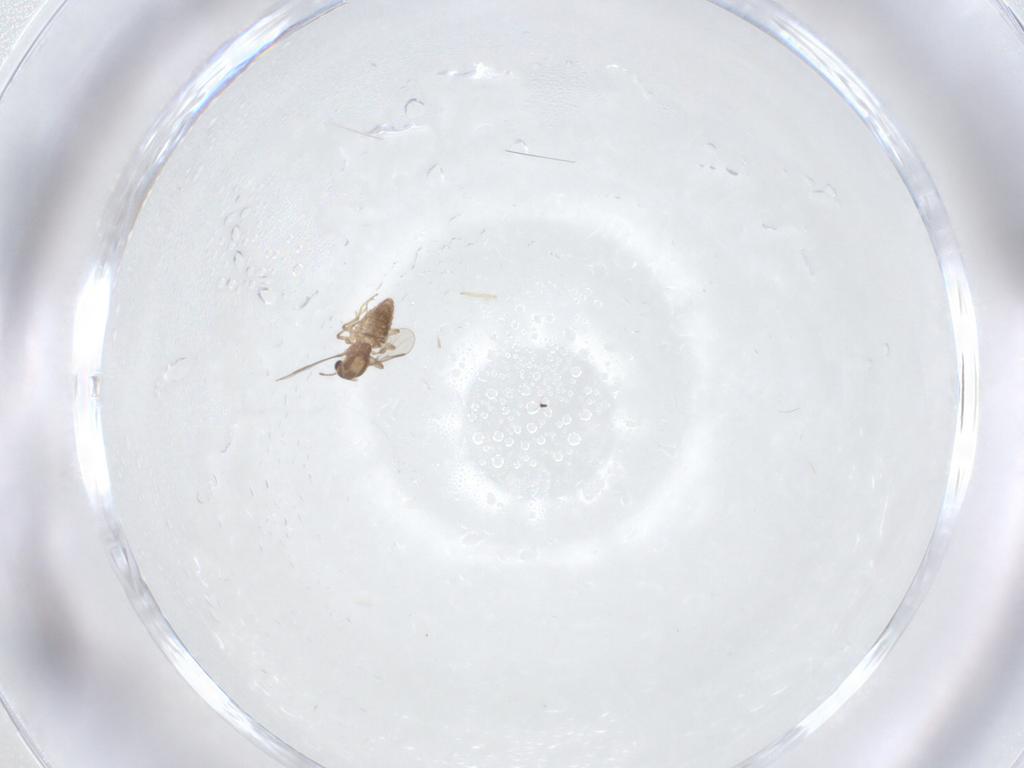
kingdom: Animalia
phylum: Arthropoda
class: Insecta
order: Diptera
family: Chironomidae
